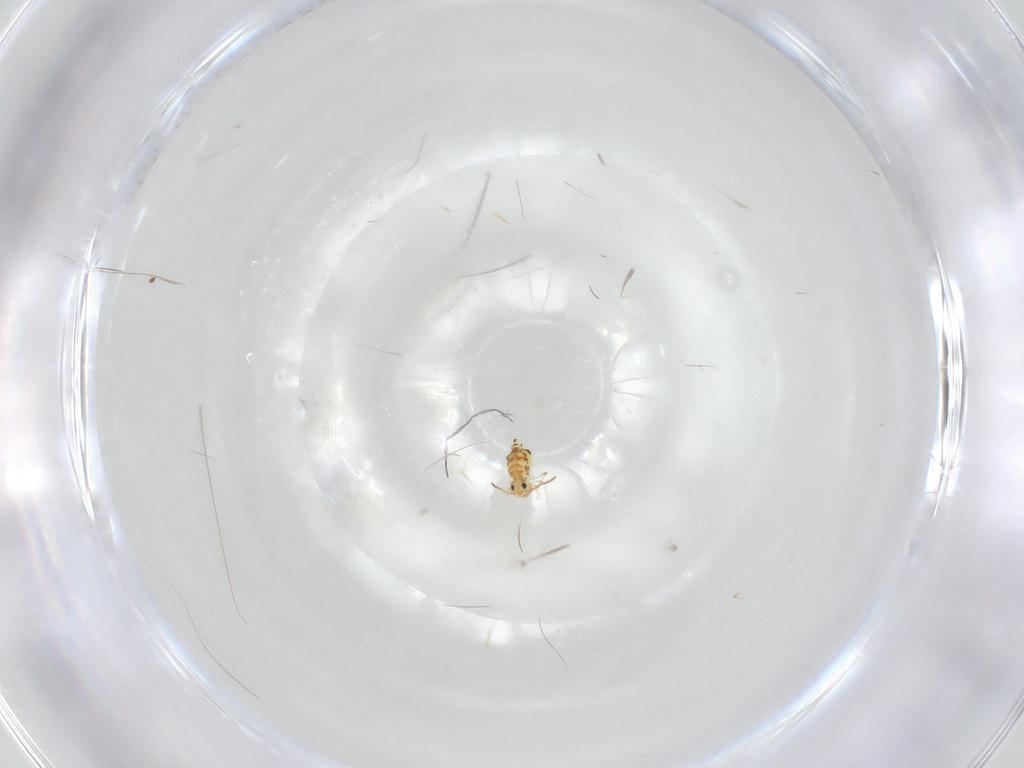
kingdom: Animalia
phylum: Arthropoda
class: Collembola
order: Symphypleona
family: Bourletiellidae
